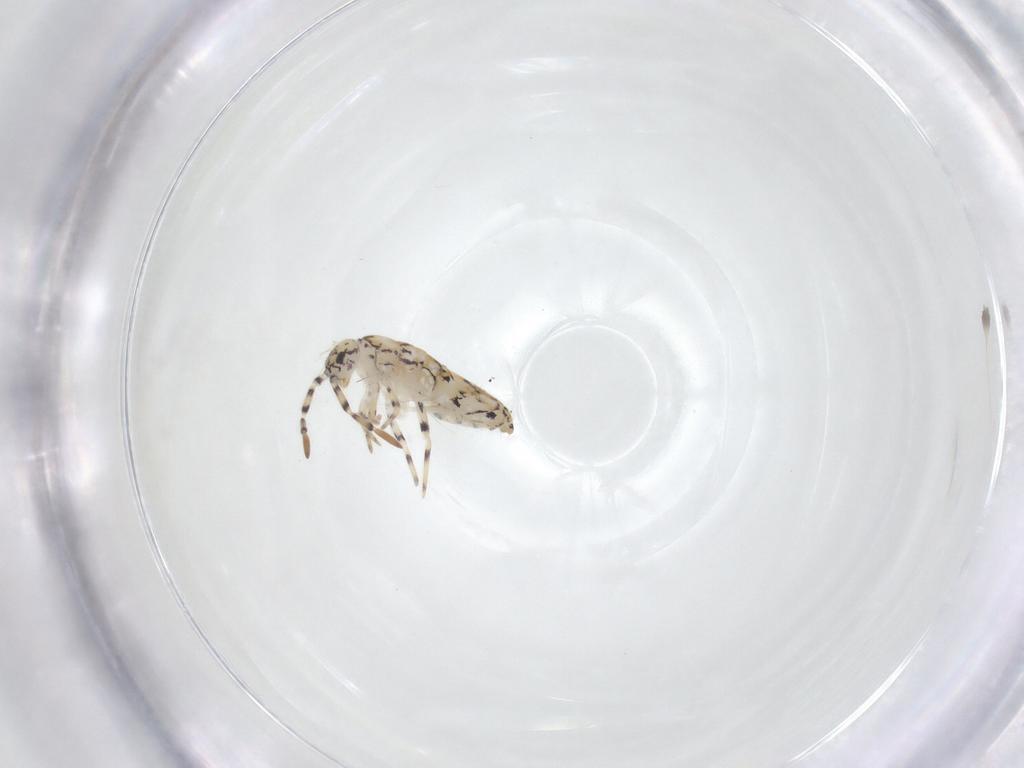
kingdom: Animalia
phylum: Arthropoda
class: Collembola
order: Entomobryomorpha
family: Entomobryidae
